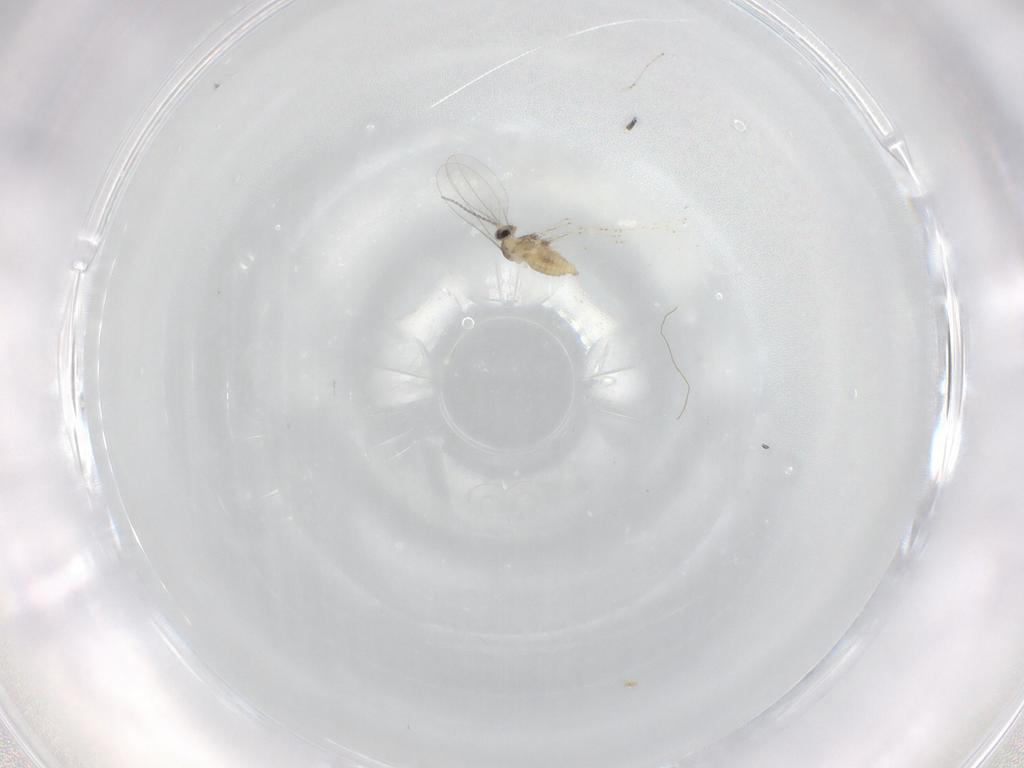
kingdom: Animalia
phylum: Arthropoda
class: Insecta
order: Diptera
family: Cecidomyiidae
